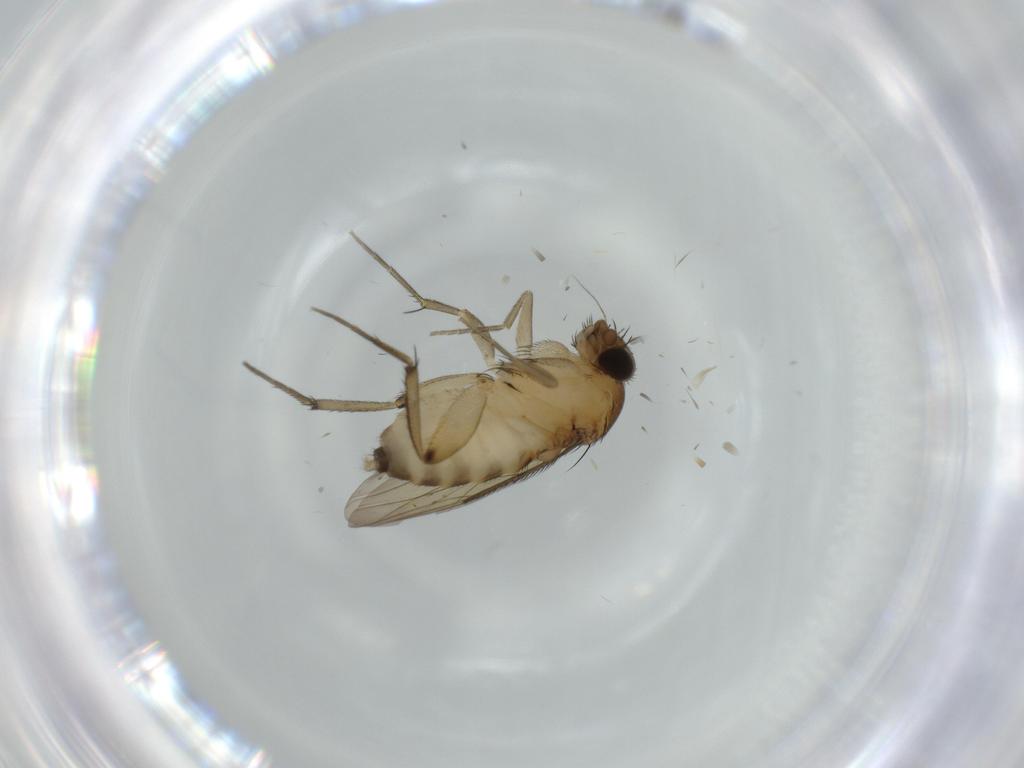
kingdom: Animalia
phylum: Arthropoda
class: Insecta
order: Diptera
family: Phoridae
